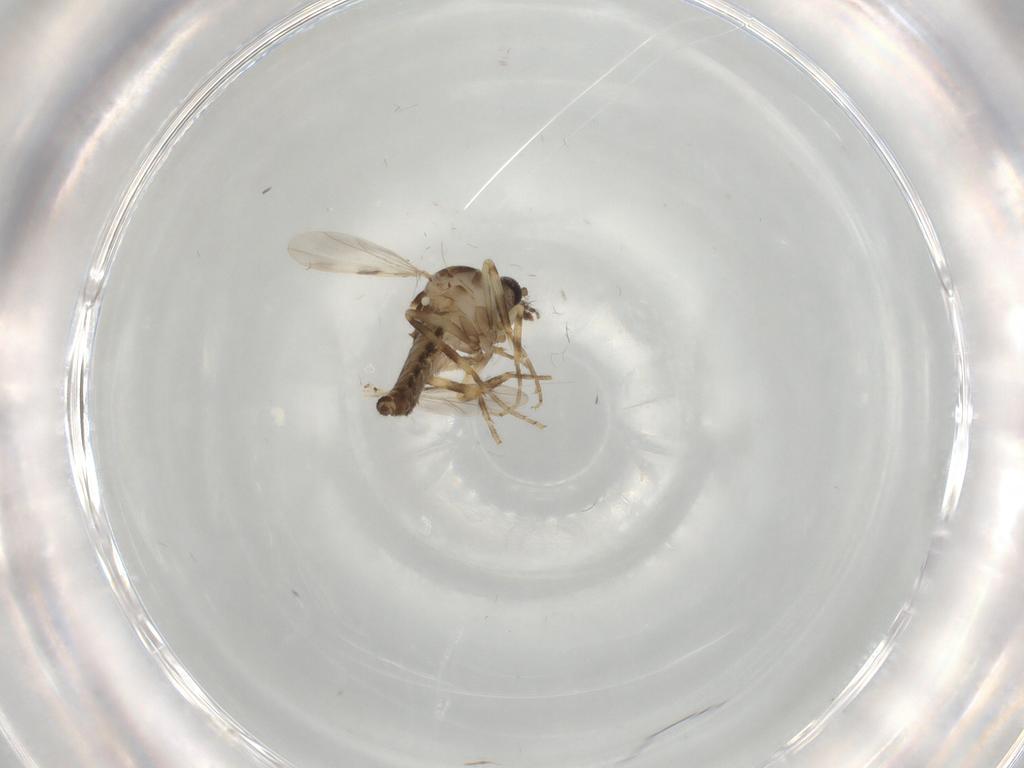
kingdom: Animalia
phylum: Arthropoda
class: Insecta
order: Diptera
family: Ceratopogonidae
